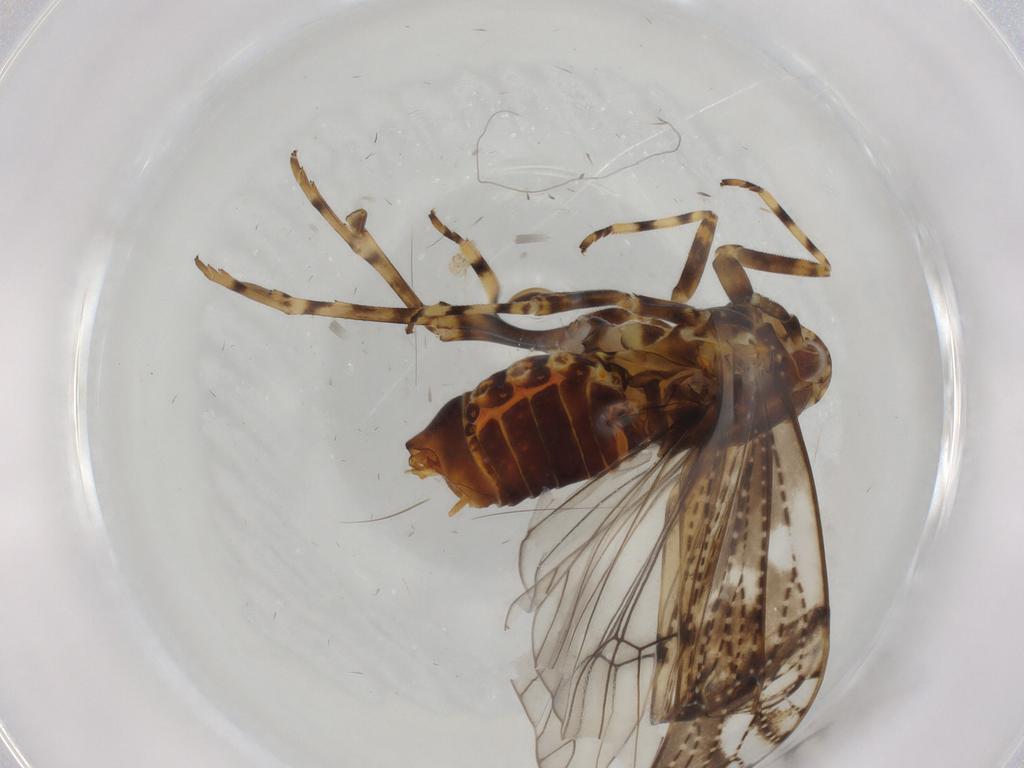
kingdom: Animalia
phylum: Arthropoda
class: Insecta
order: Hemiptera
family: Delphacidae
